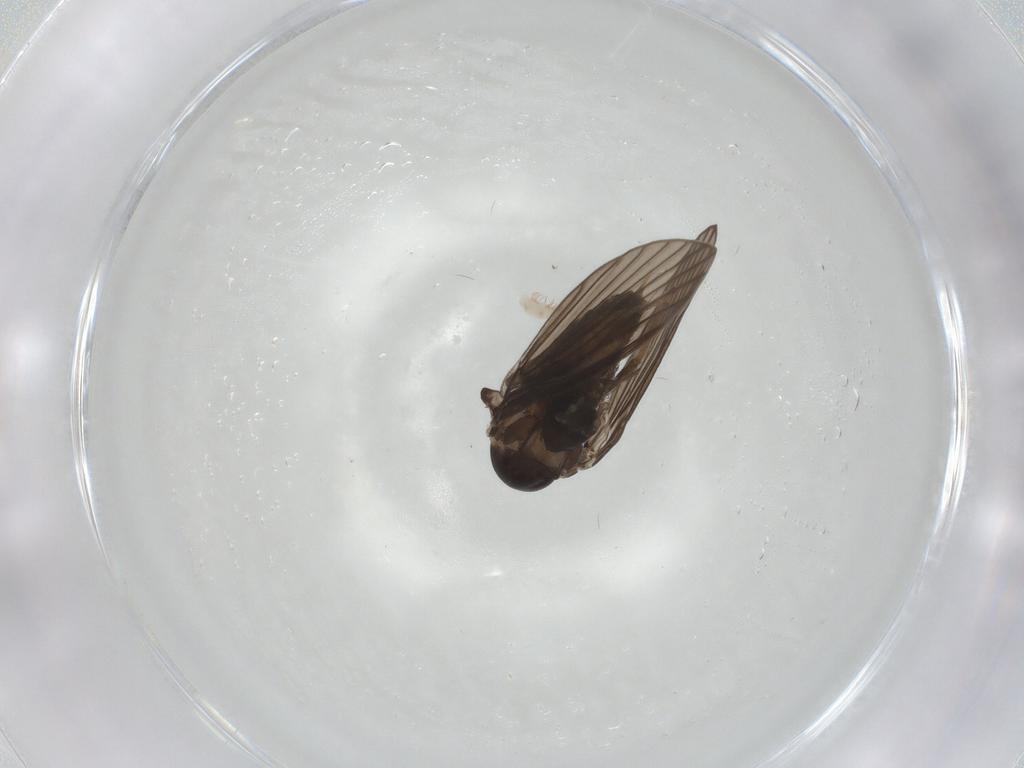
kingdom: Animalia
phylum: Arthropoda
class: Insecta
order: Diptera
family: Psychodidae
